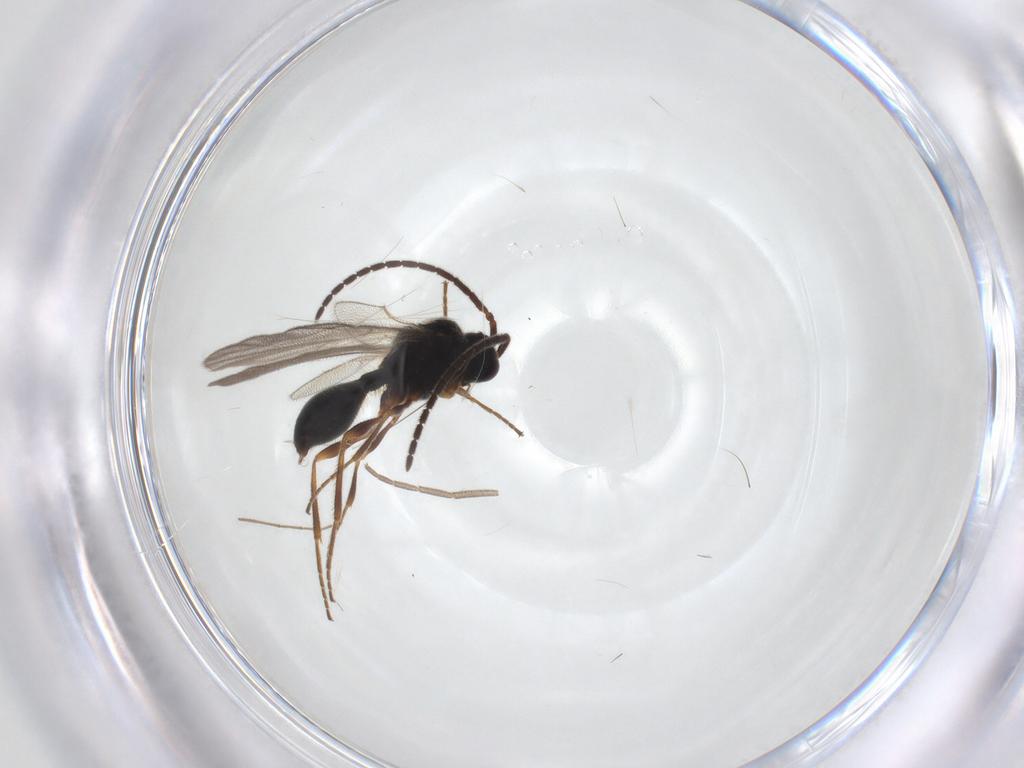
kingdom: Animalia
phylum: Arthropoda
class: Insecta
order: Hymenoptera
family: Diapriidae
